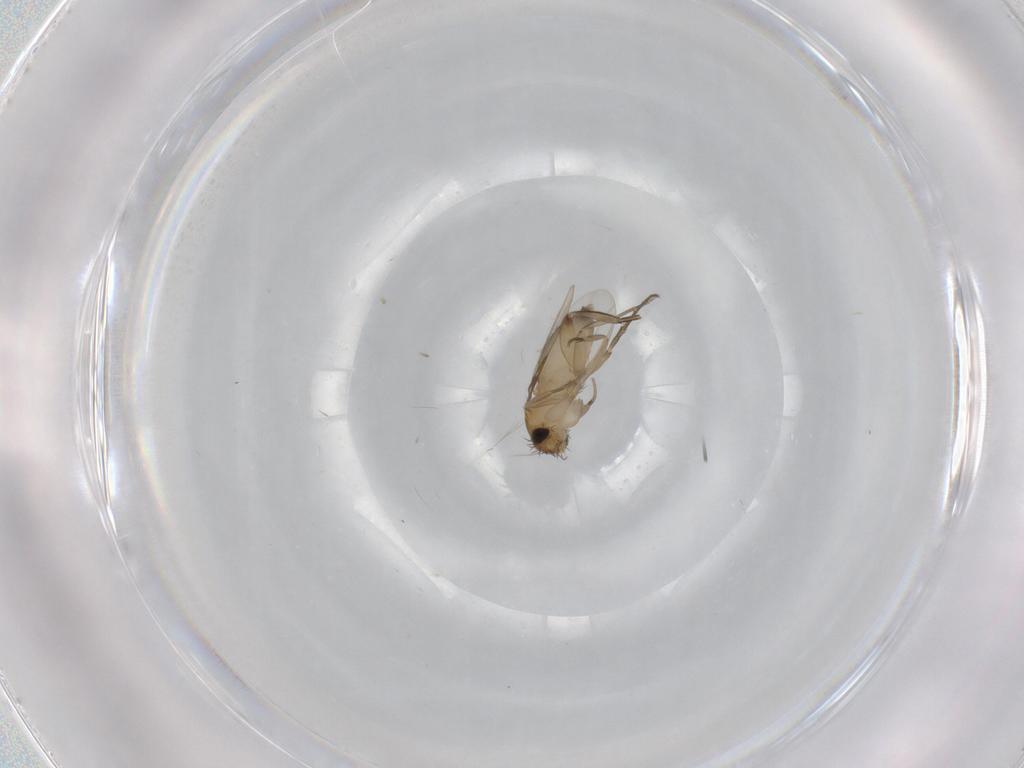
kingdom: Animalia
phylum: Arthropoda
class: Insecta
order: Diptera
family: Phoridae
